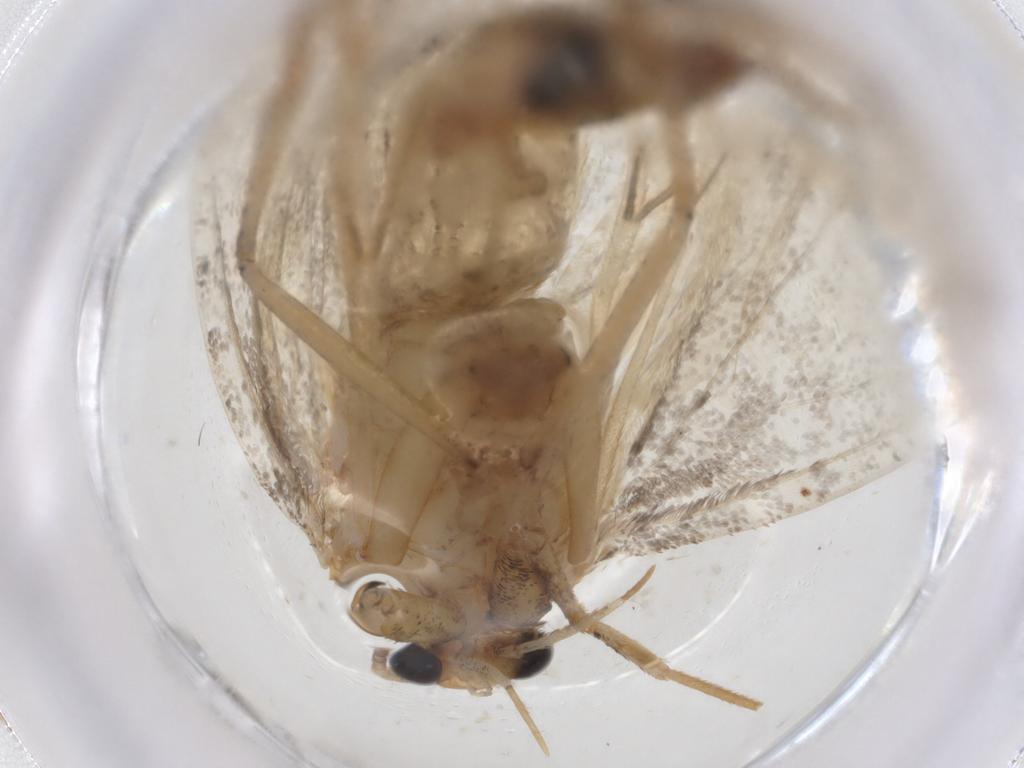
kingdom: Animalia
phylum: Arthropoda
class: Insecta
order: Lepidoptera
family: Tineidae
